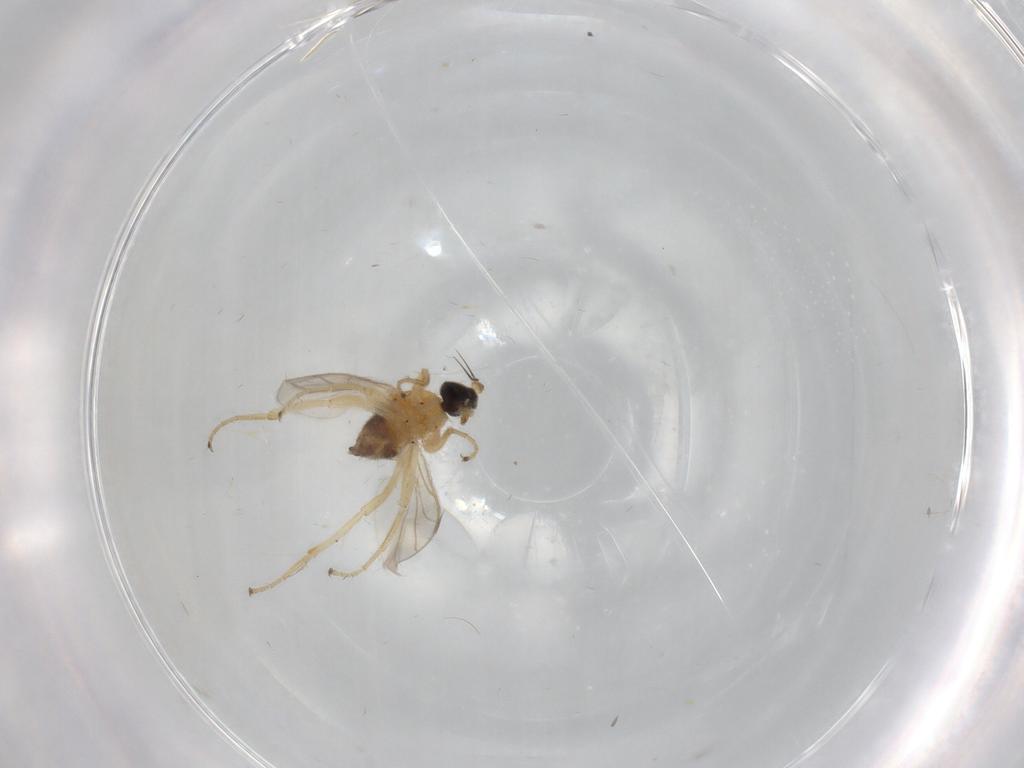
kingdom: Animalia
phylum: Arthropoda
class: Insecta
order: Diptera
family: Hybotidae
